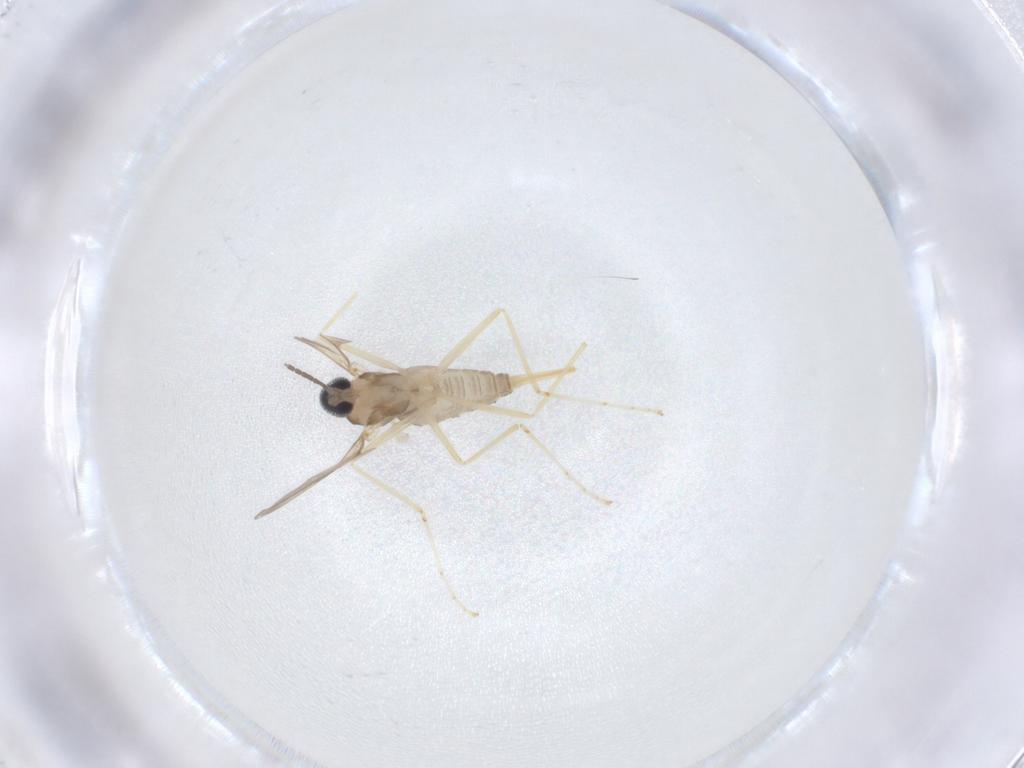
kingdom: Animalia
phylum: Arthropoda
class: Insecta
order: Diptera
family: Cecidomyiidae
